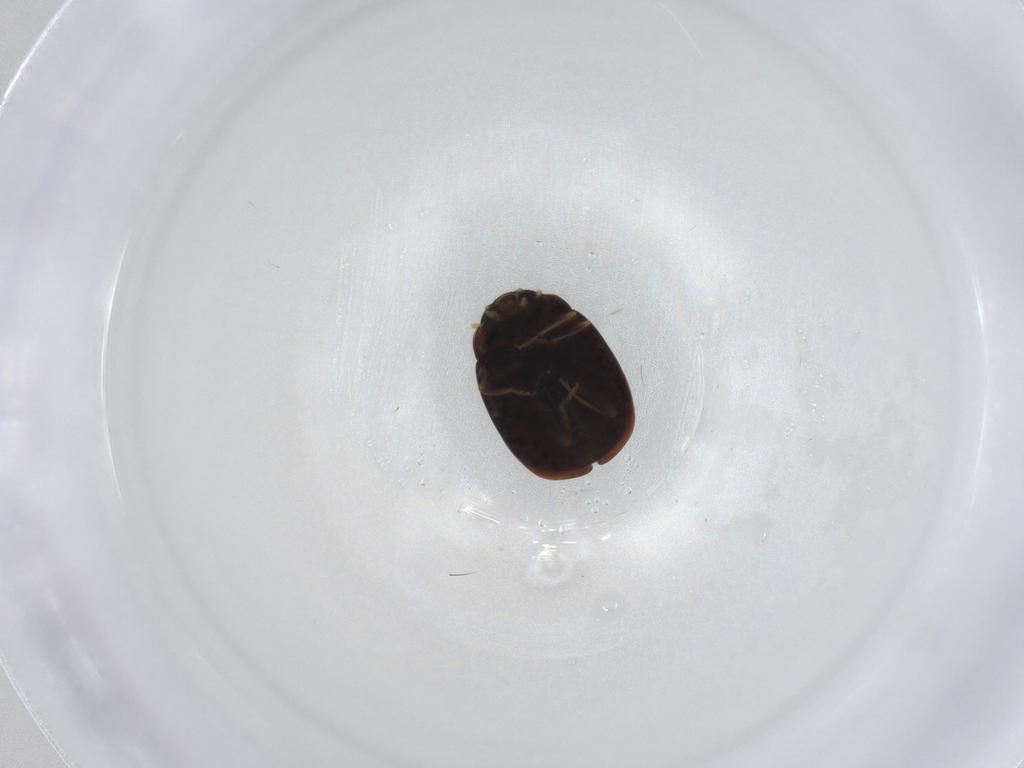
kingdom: Animalia
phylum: Arthropoda
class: Insecta
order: Coleoptera
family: Coccinellidae
